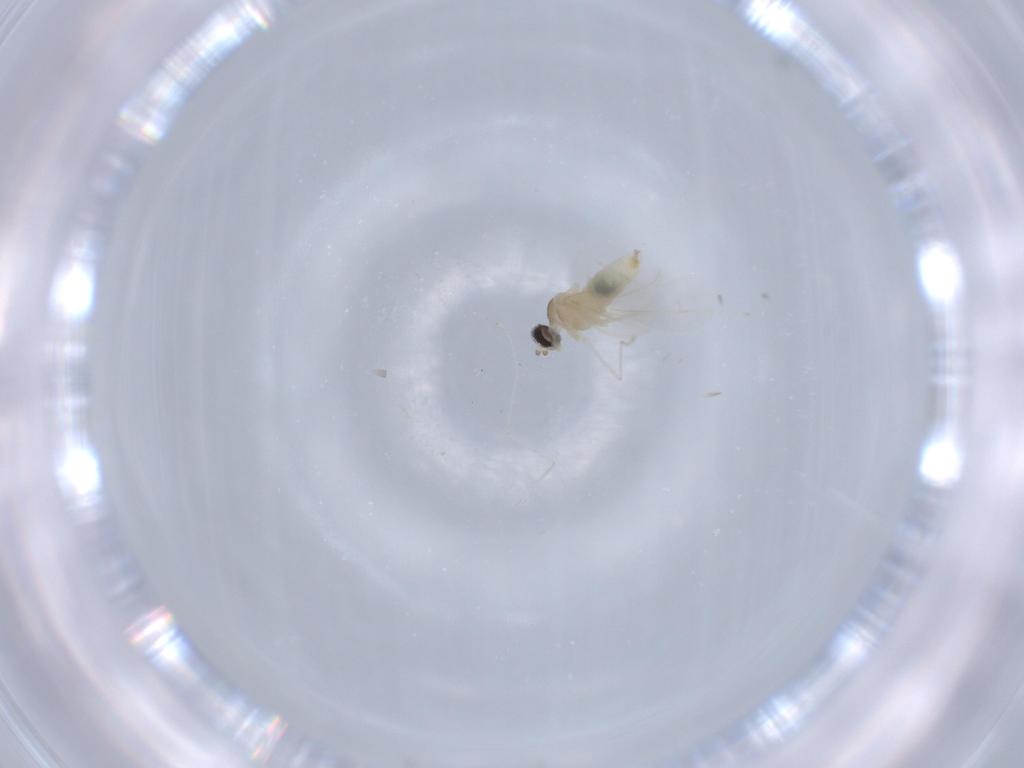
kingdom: Animalia
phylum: Arthropoda
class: Insecta
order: Diptera
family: Cecidomyiidae
